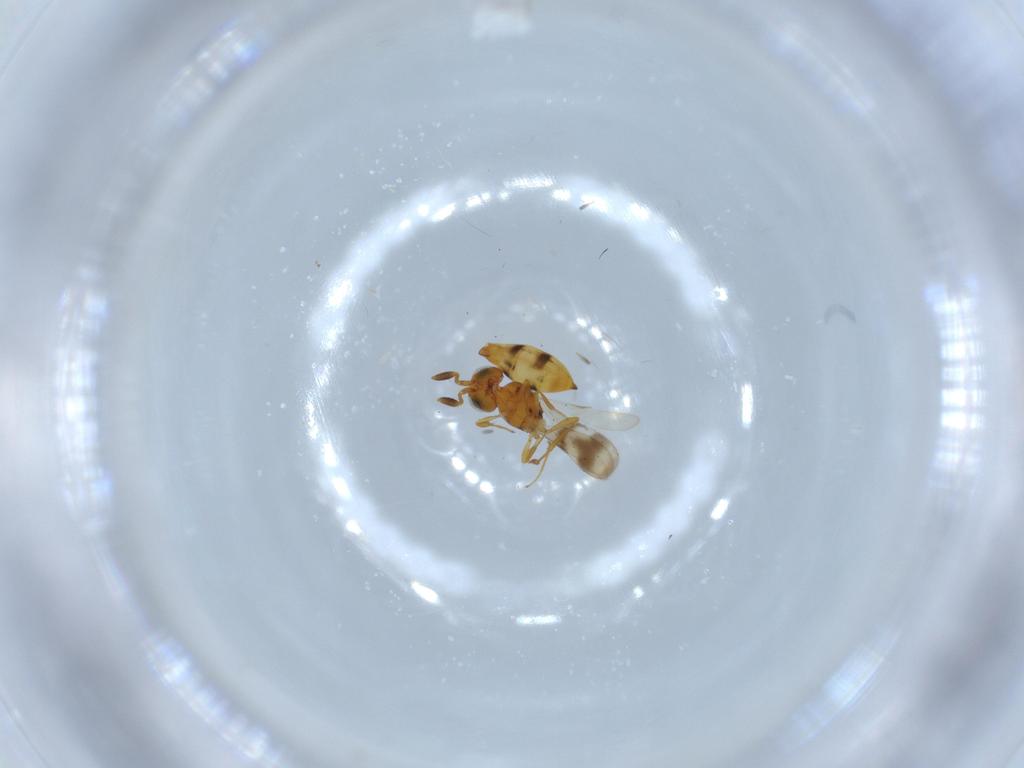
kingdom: Animalia
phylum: Arthropoda
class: Insecta
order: Hymenoptera
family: Scelionidae
